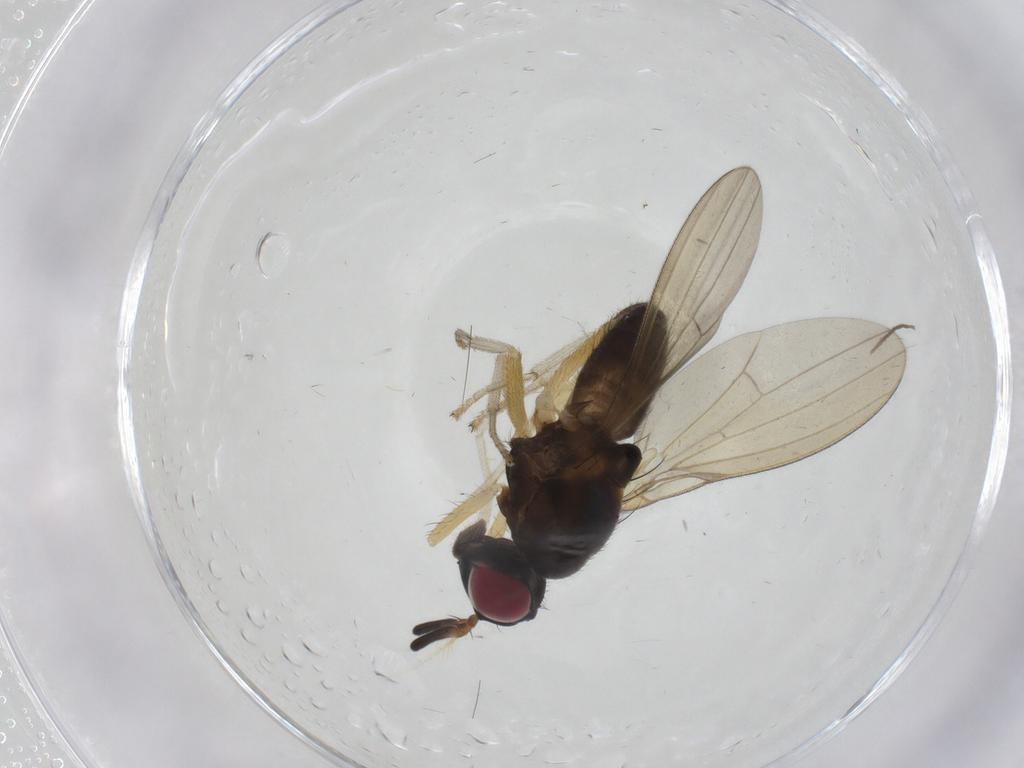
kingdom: Animalia
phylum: Arthropoda
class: Insecta
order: Diptera
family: Lauxaniidae
